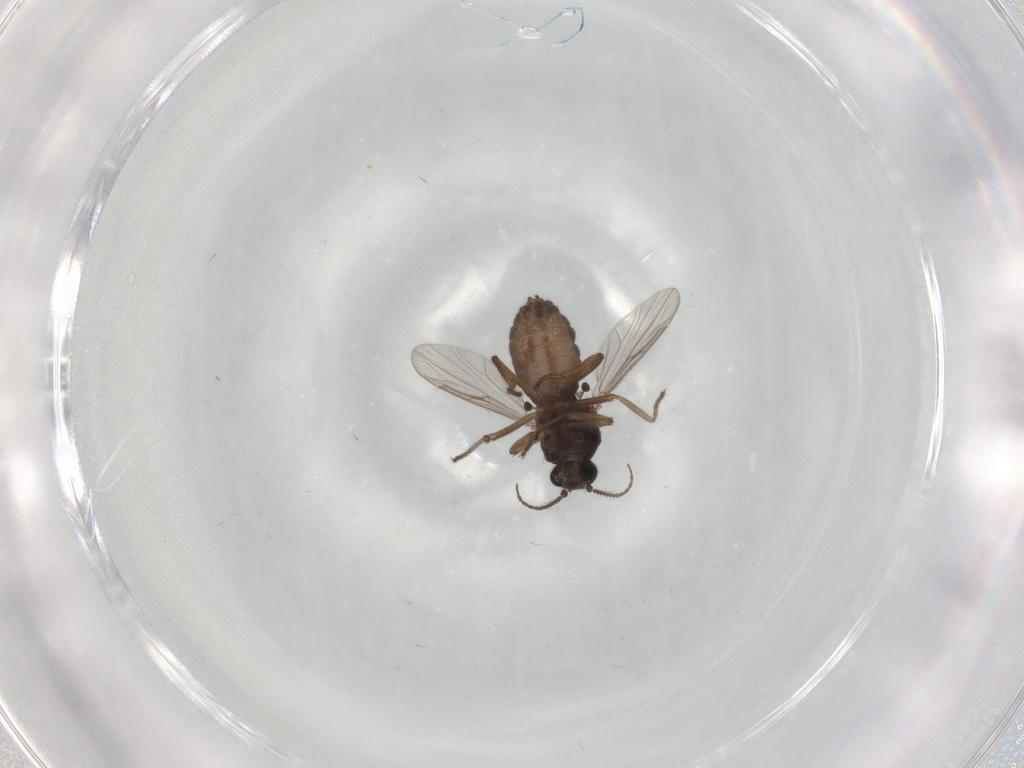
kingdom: Animalia
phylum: Arthropoda
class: Insecta
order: Diptera
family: Ceratopogonidae
